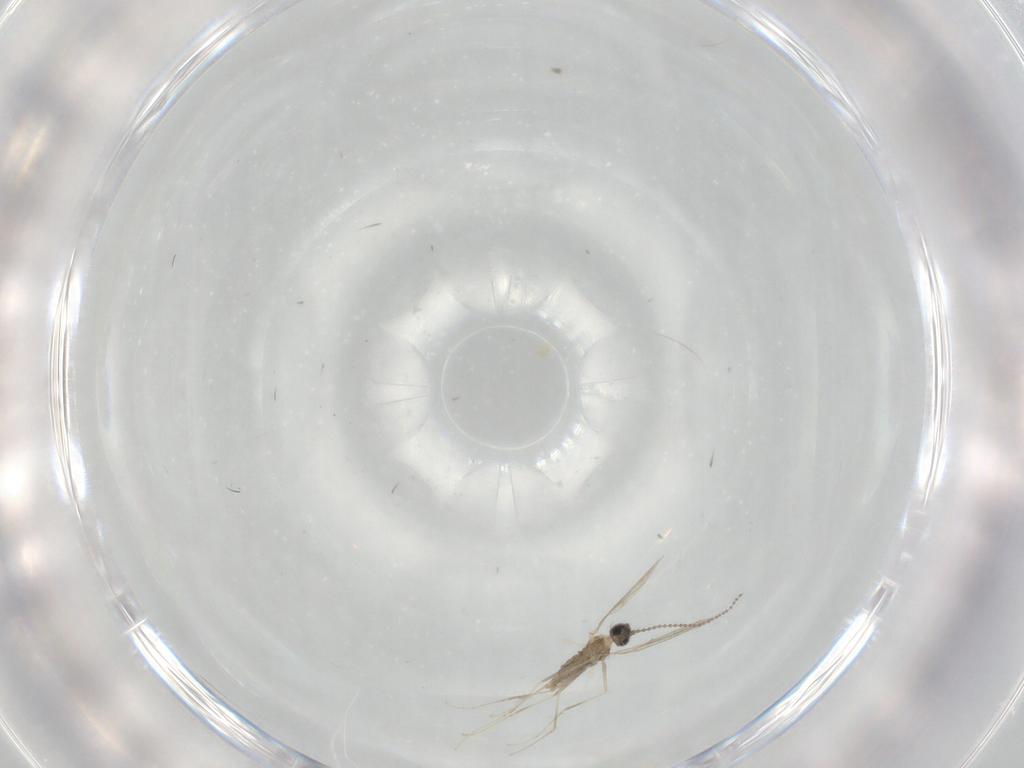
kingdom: Animalia
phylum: Arthropoda
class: Insecta
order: Diptera
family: Cecidomyiidae
